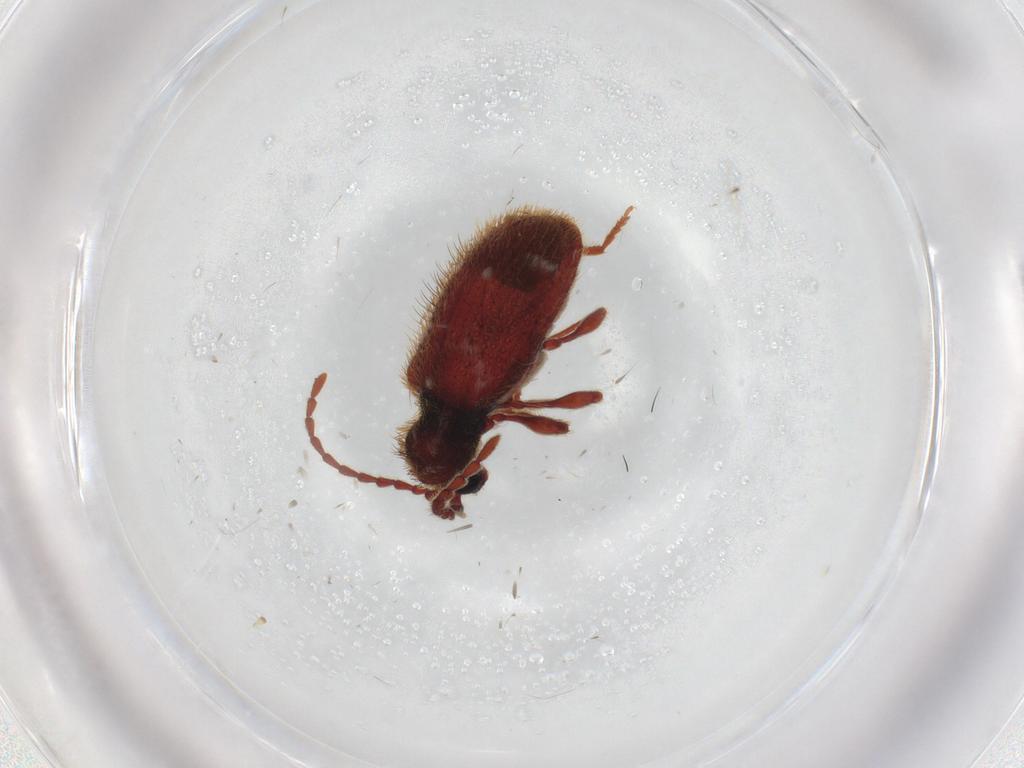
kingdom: Animalia
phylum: Arthropoda
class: Insecta
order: Coleoptera
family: Ptinidae
